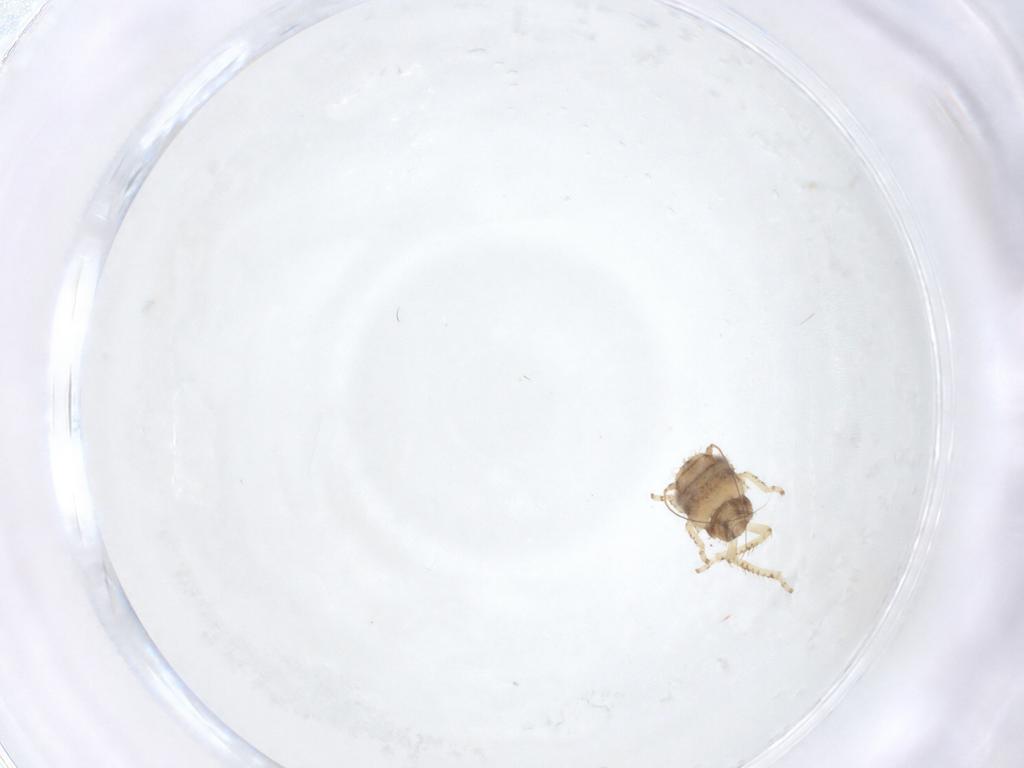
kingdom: Animalia
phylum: Arthropoda
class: Insecta
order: Hemiptera
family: Cicadellidae
